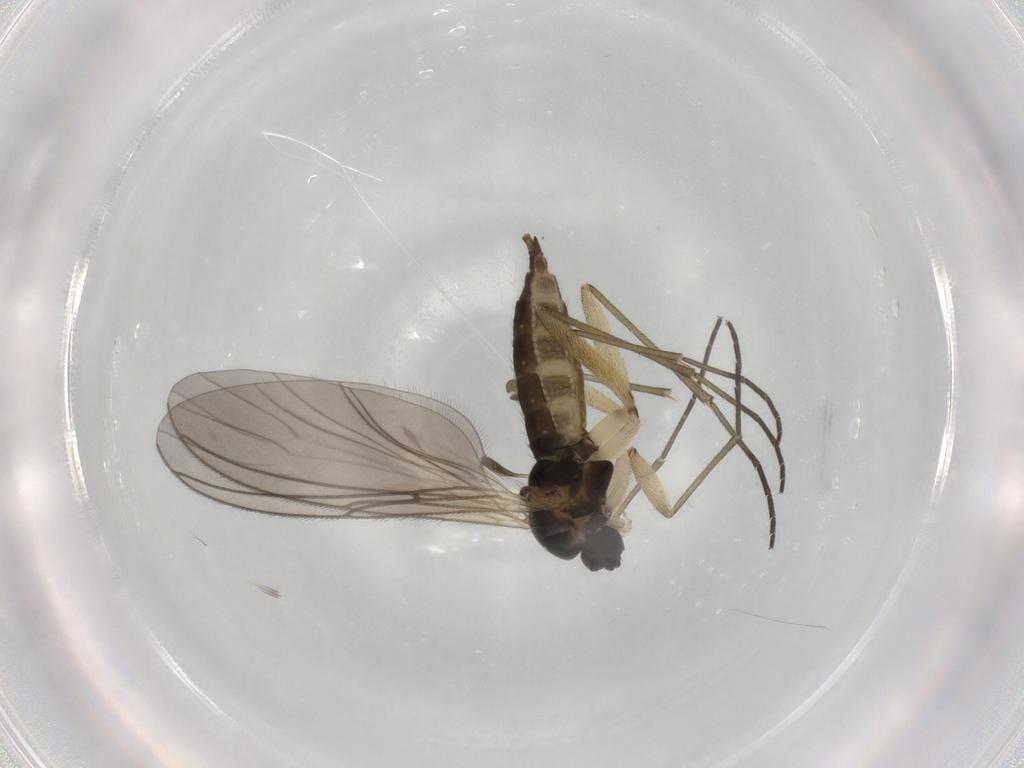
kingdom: Animalia
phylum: Arthropoda
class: Insecta
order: Diptera
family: Sciaridae
